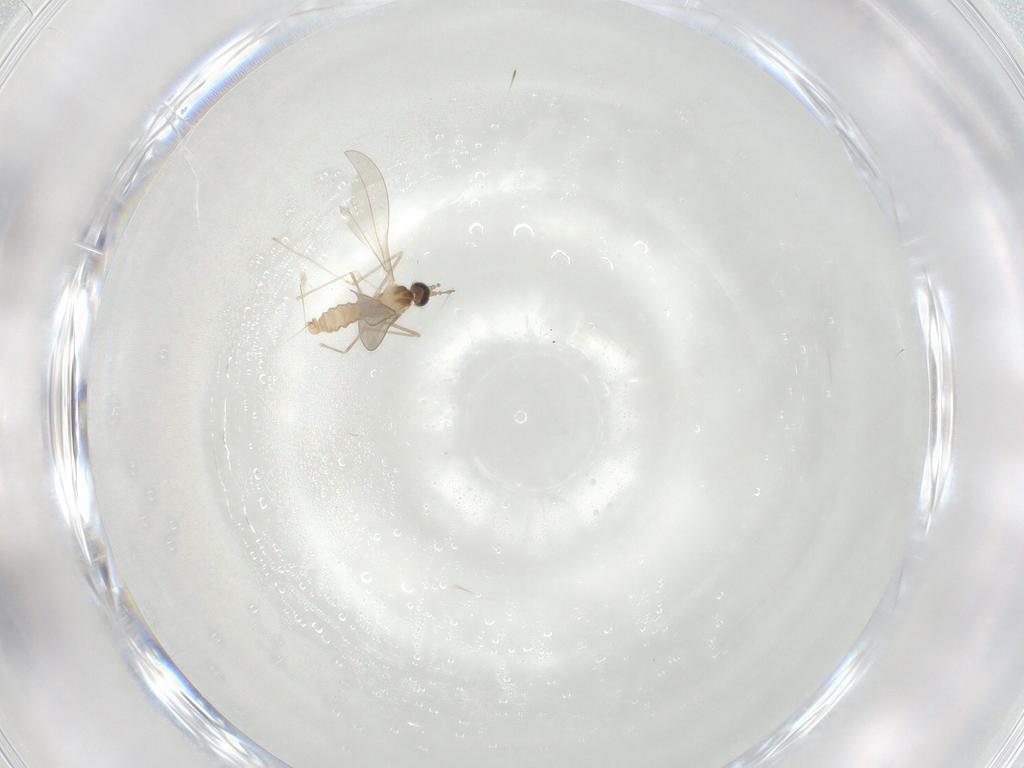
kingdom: Animalia
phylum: Arthropoda
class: Insecta
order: Diptera
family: Cecidomyiidae
